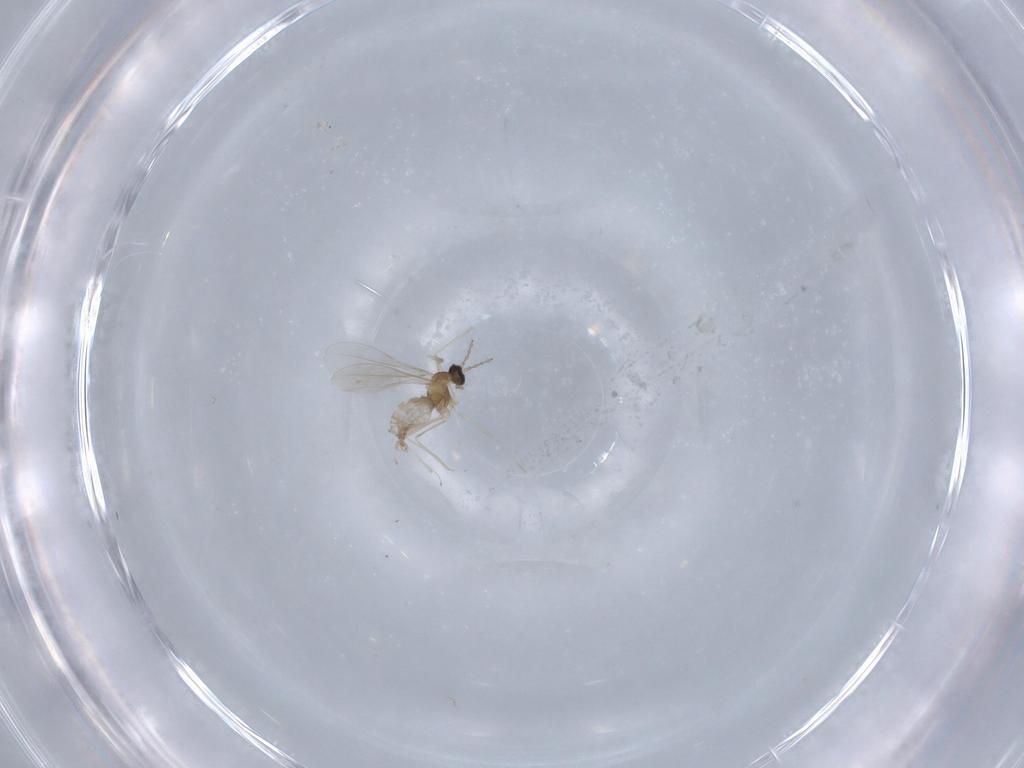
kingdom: Animalia
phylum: Arthropoda
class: Insecta
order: Diptera
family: Cecidomyiidae
